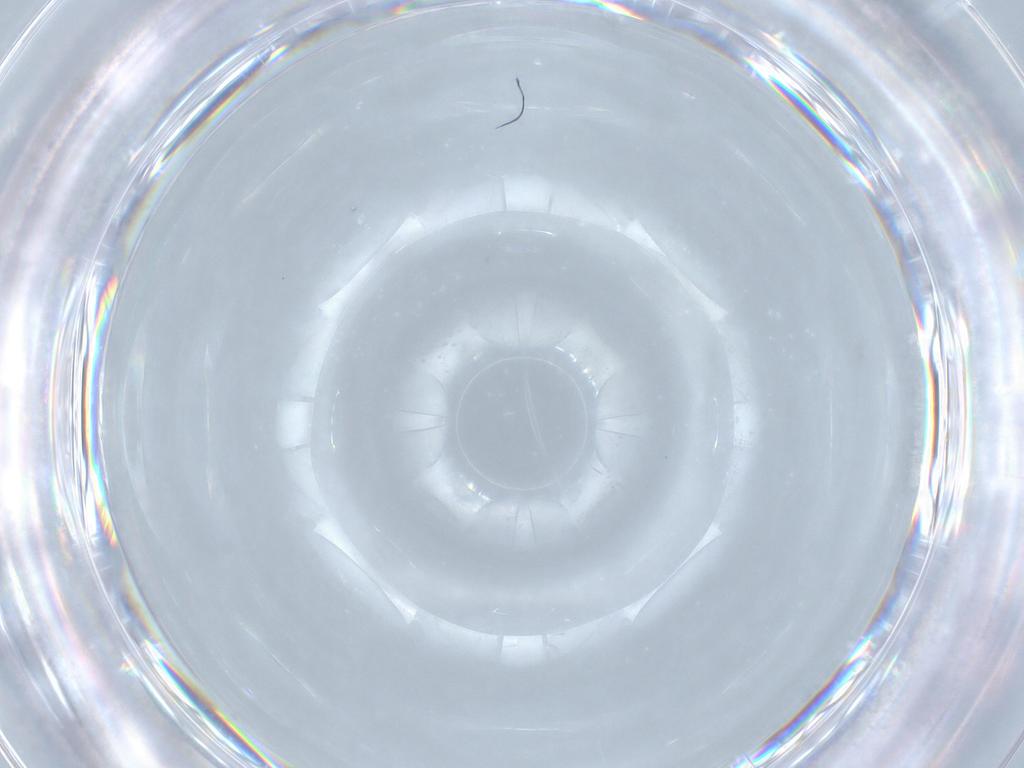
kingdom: Animalia
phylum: Arthropoda
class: Insecta
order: Diptera
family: Cecidomyiidae
